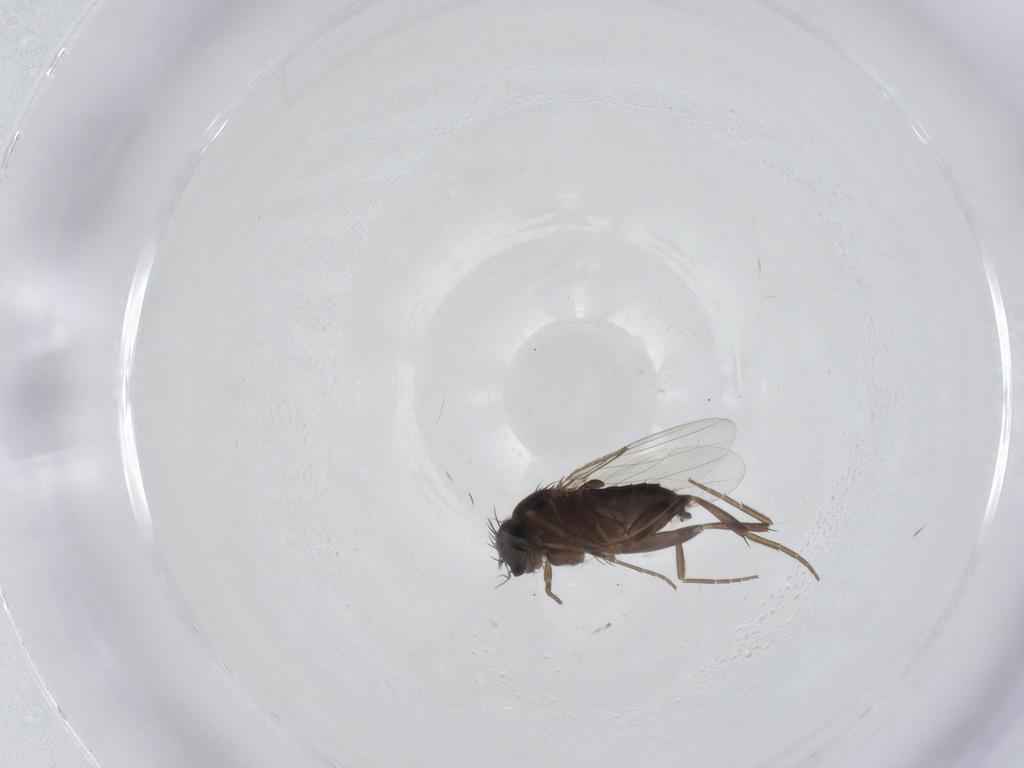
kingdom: Animalia
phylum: Arthropoda
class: Insecta
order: Diptera
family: Phoridae
